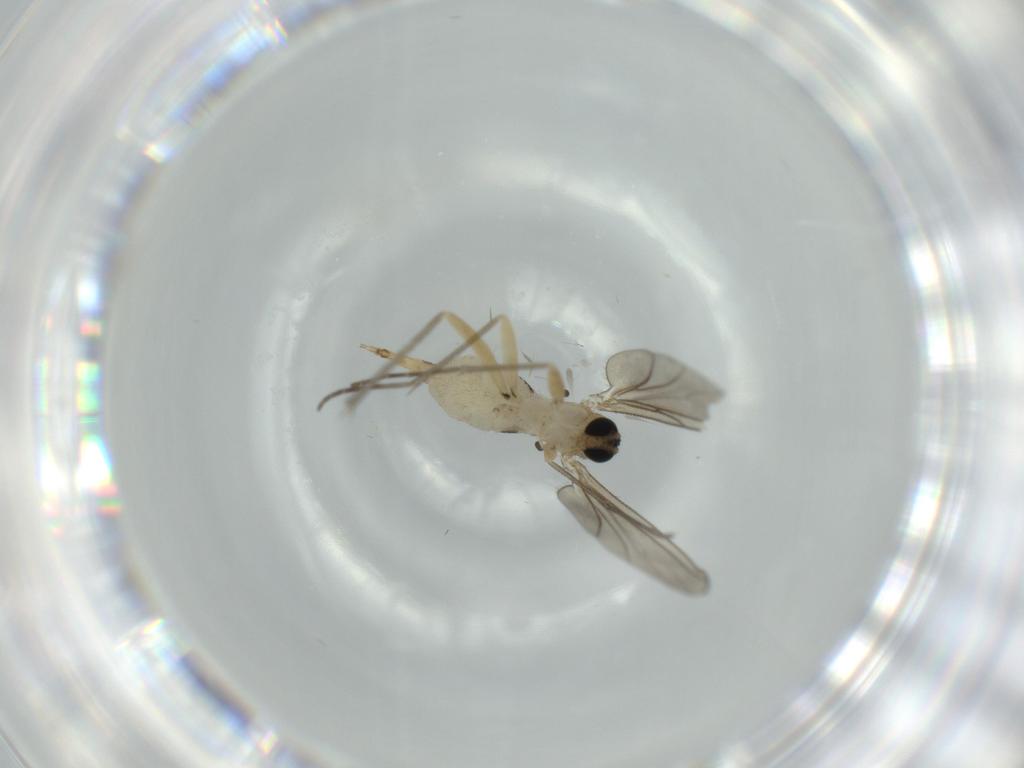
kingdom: Animalia
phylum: Arthropoda
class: Insecta
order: Diptera
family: Sciaridae
